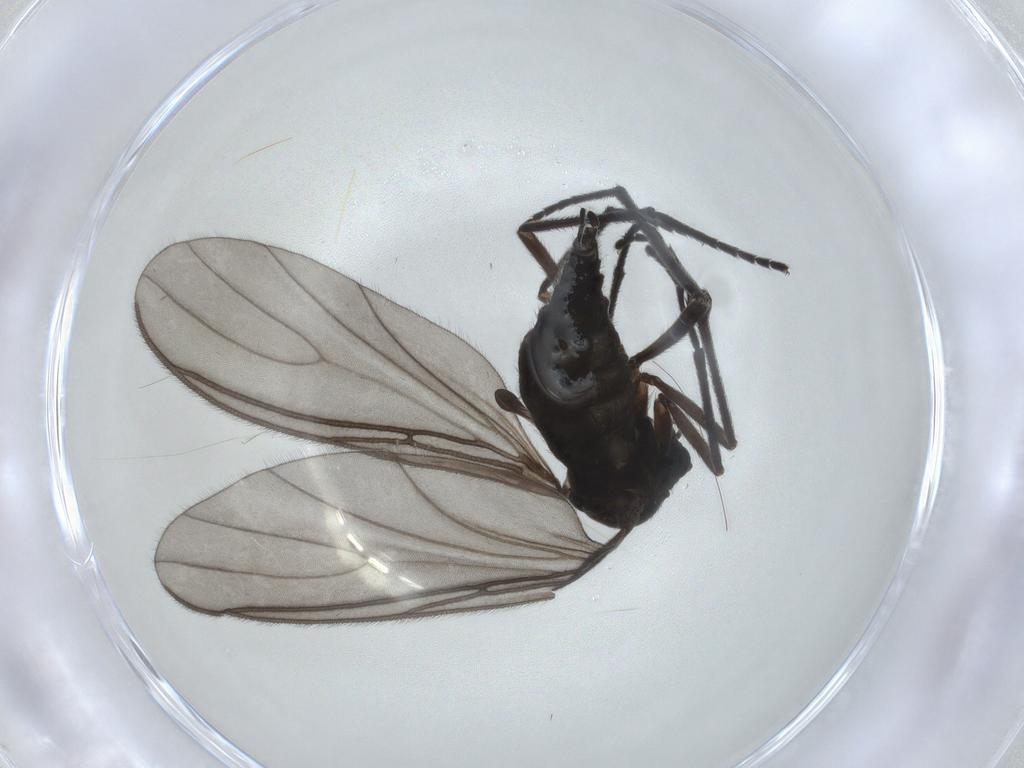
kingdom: Animalia
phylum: Arthropoda
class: Insecta
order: Diptera
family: Sciaridae
